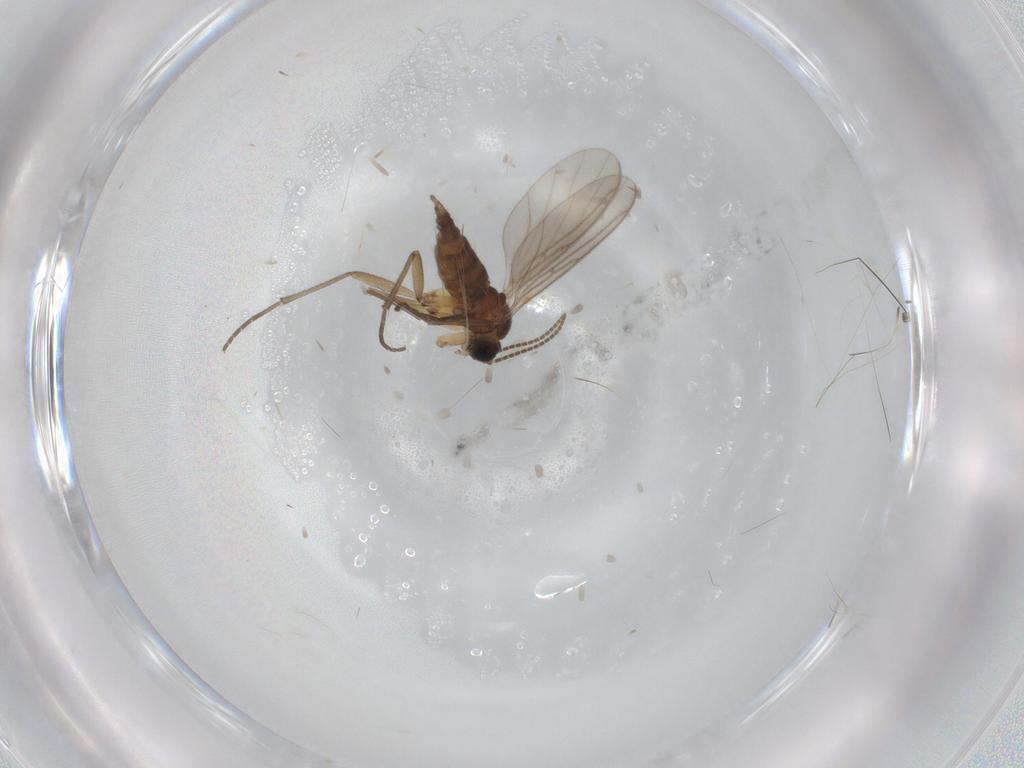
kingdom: Animalia
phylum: Arthropoda
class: Insecta
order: Diptera
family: Sciaridae
